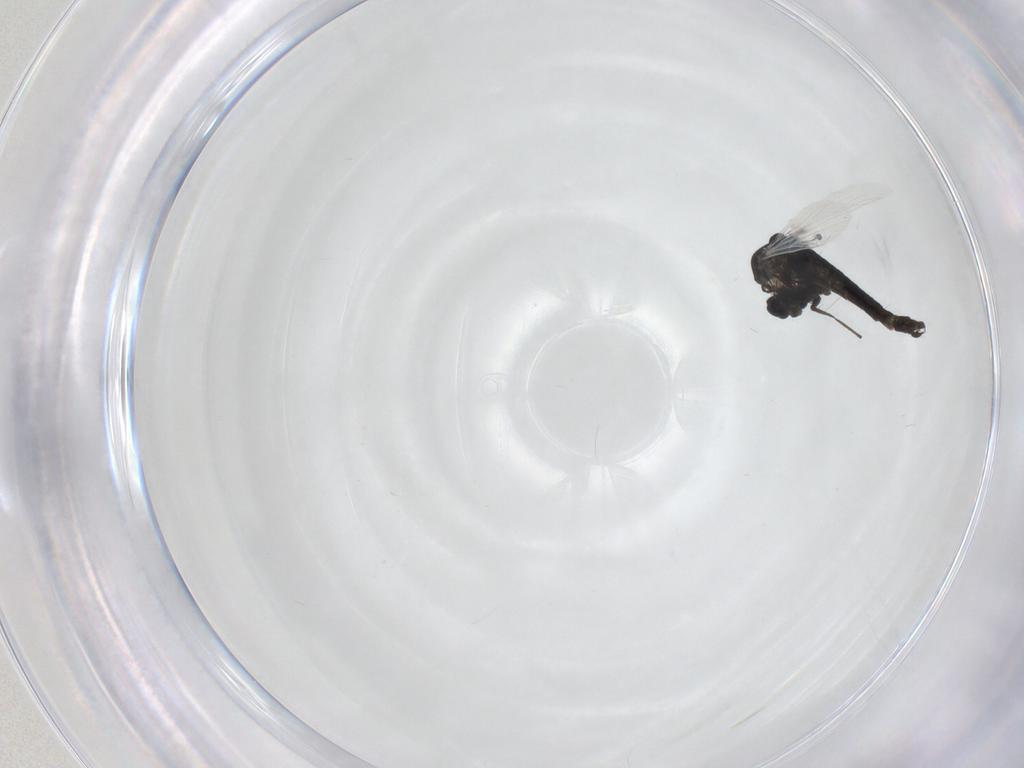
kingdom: Animalia
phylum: Arthropoda
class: Insecta
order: Diptera
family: Chironomidae
